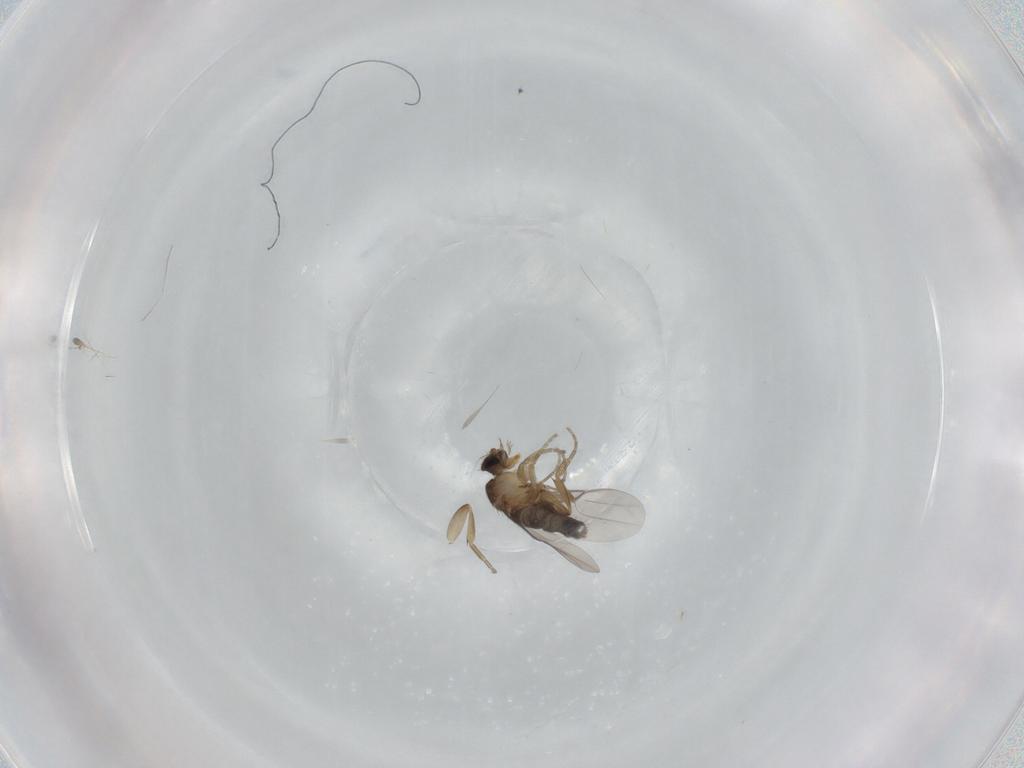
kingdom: Animalia
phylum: Arthropoda
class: Insecta
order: Diptera
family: Phoridae
